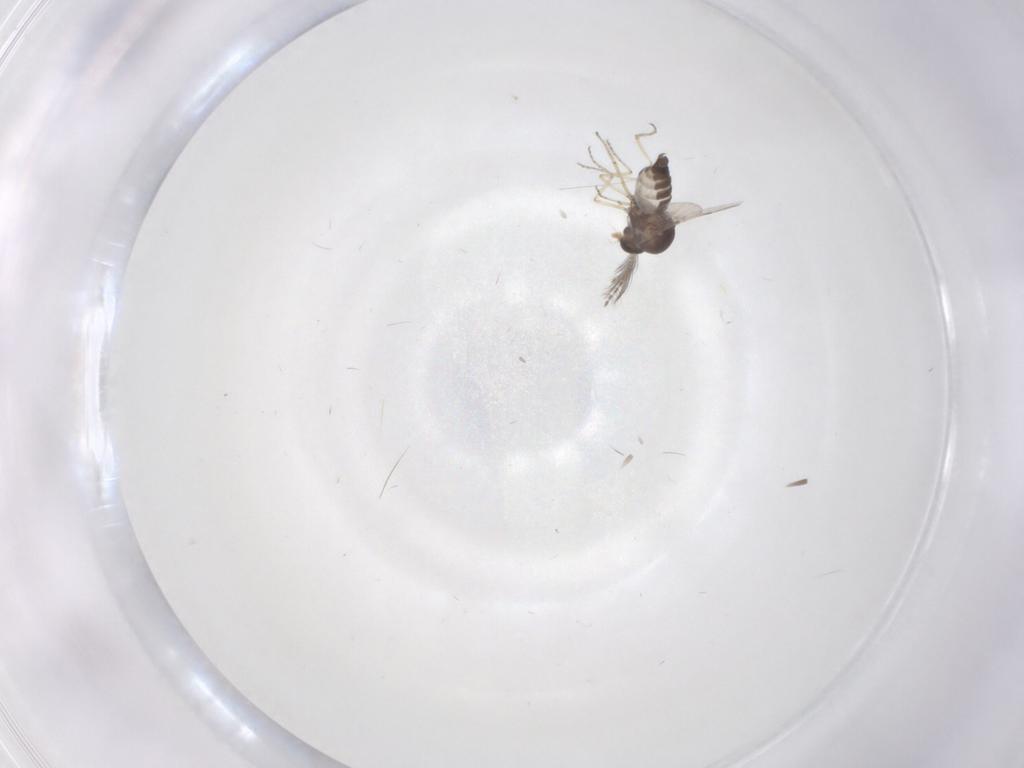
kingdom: Animalia
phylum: Arthropoda
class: Insecta
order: Diptera
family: Ceratopogonidae
